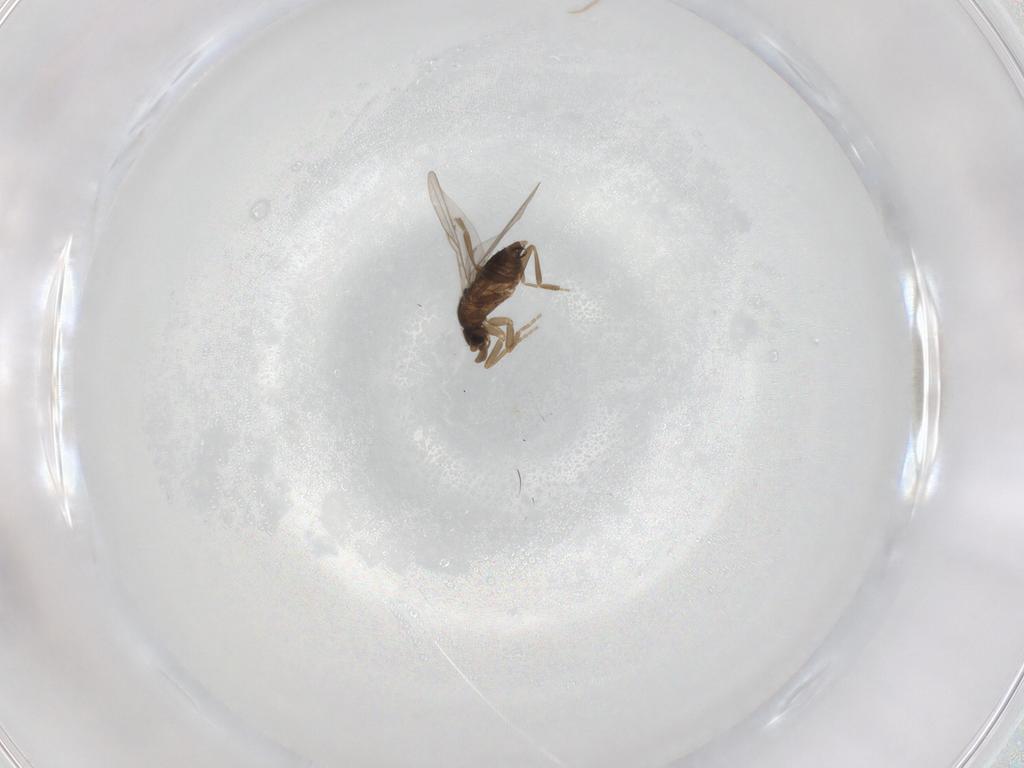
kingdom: Animalia
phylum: Arthropoda
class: Insecta
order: Diptera
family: Phoridae
